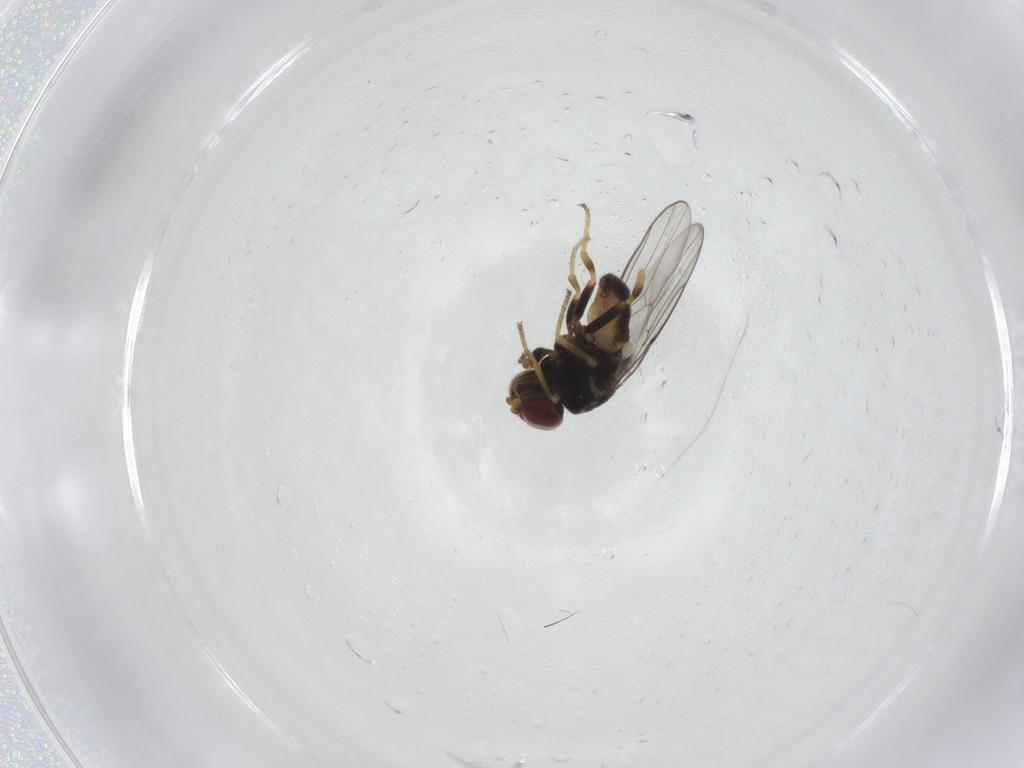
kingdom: Animalia
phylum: Arthropoda
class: Insecta
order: Diptera
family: Chloropidae
